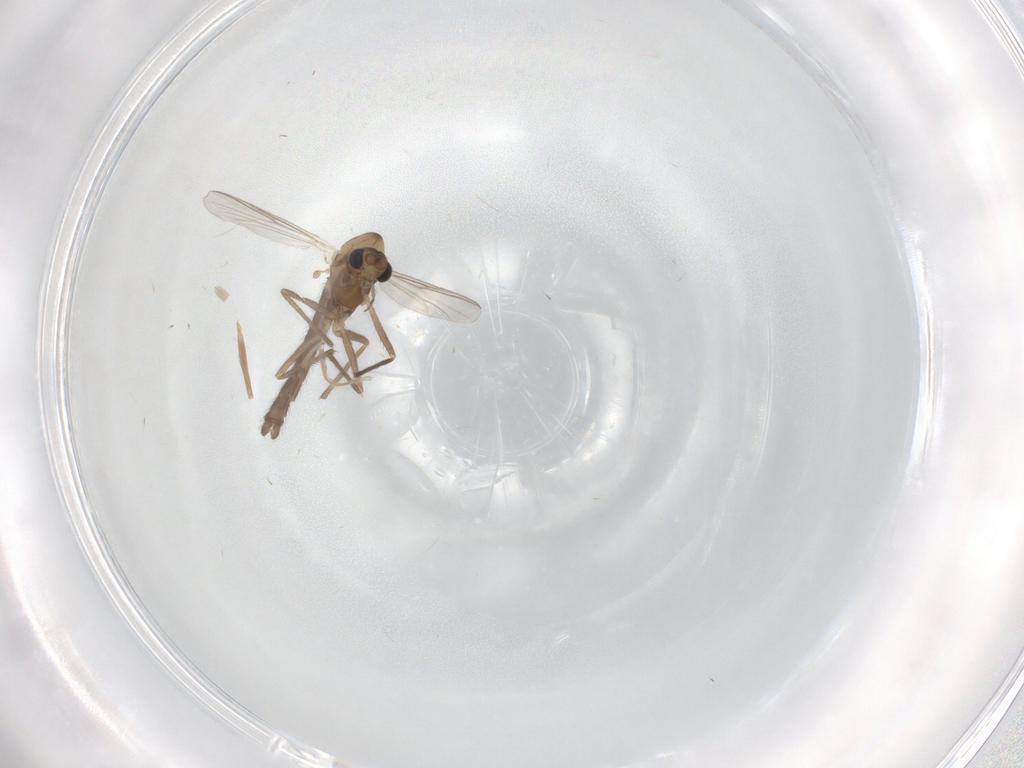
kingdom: Animalia
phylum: Arthropoda
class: Insecta
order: Diptera
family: Chironomidae
